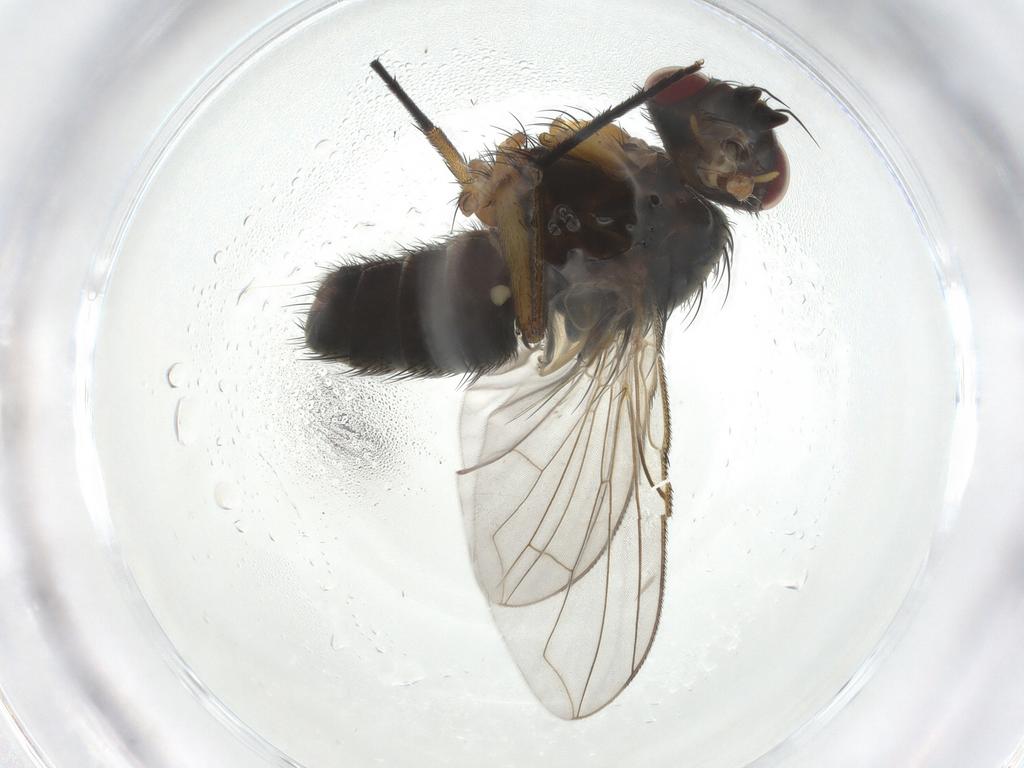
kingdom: Animalia
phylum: Arthropoda
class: Insecta
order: Diptera
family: Anthomyiidae
